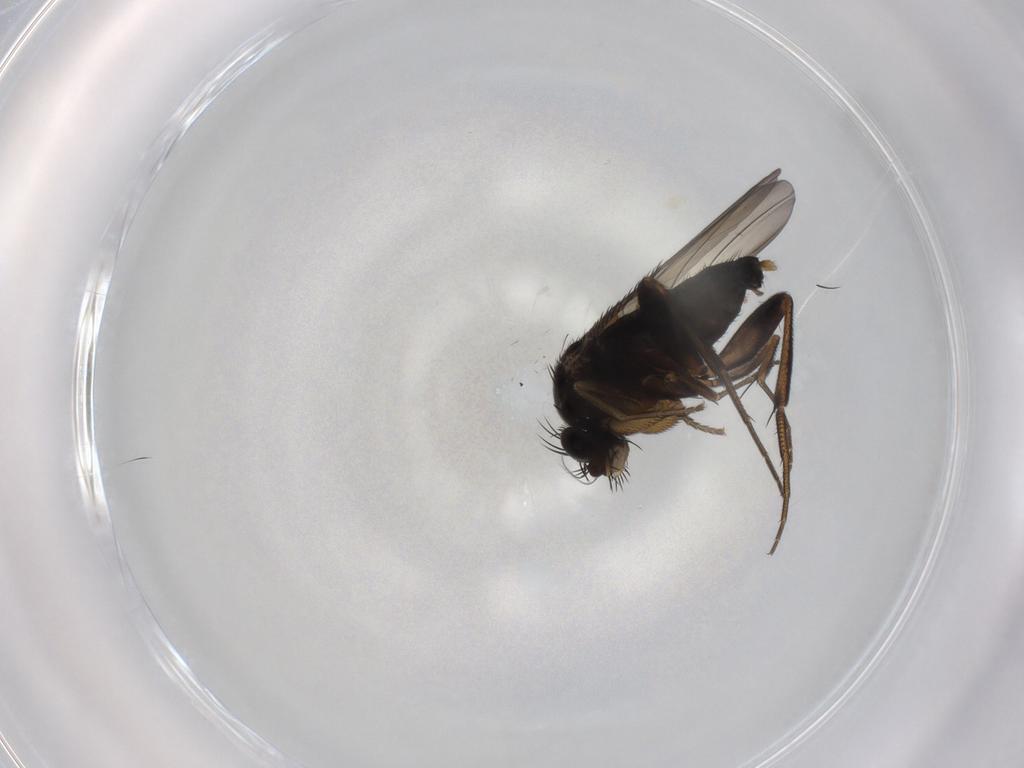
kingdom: Animalia
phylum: Arthropoda
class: Insecta
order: Diptera
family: Phoridae
